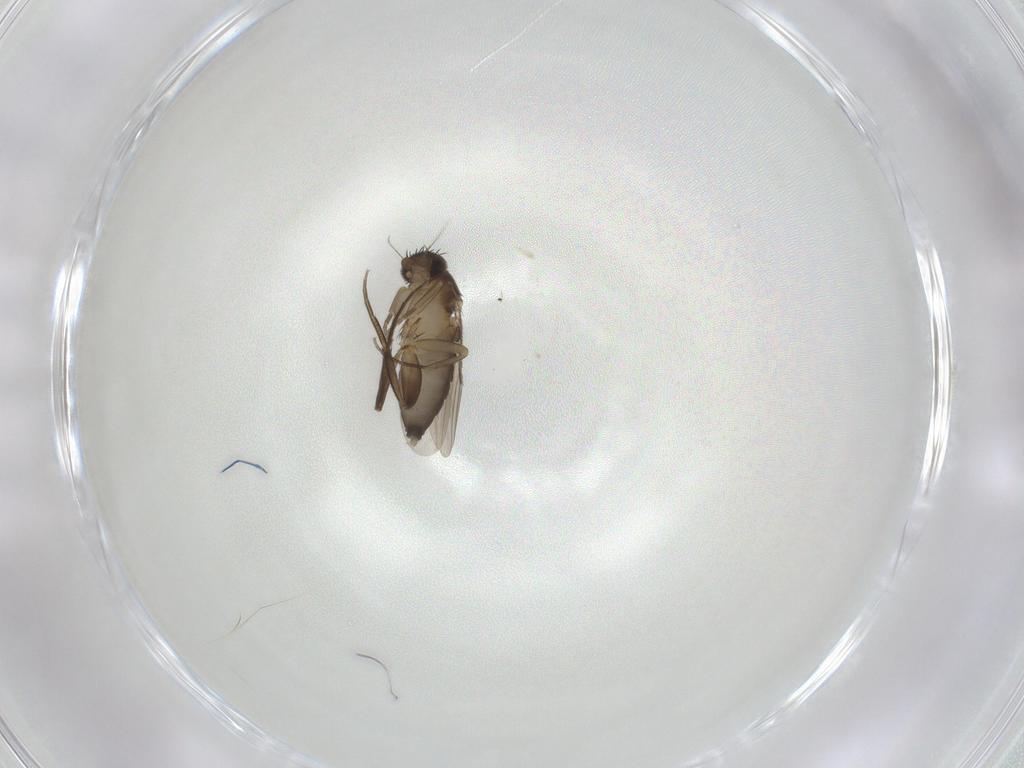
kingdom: Animalia
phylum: Arthropoda
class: Insecta
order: Diptera
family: Phoridae
